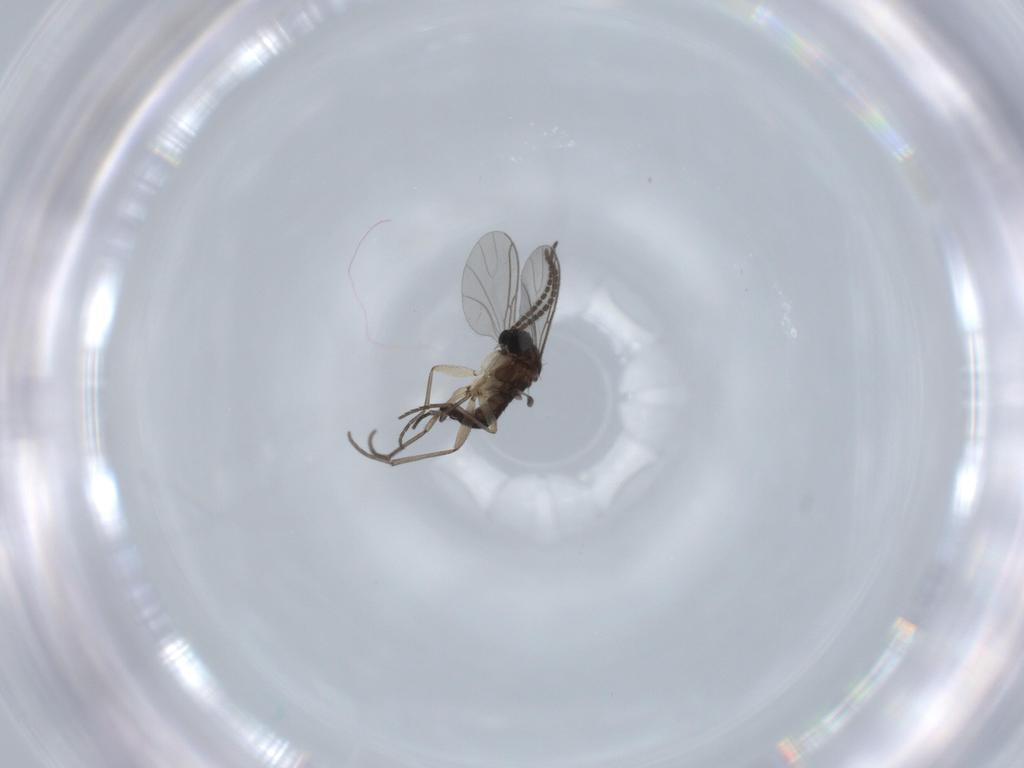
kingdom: Animalia
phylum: Arthropoda
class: Insecta
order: Diptera
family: Sciaridae
